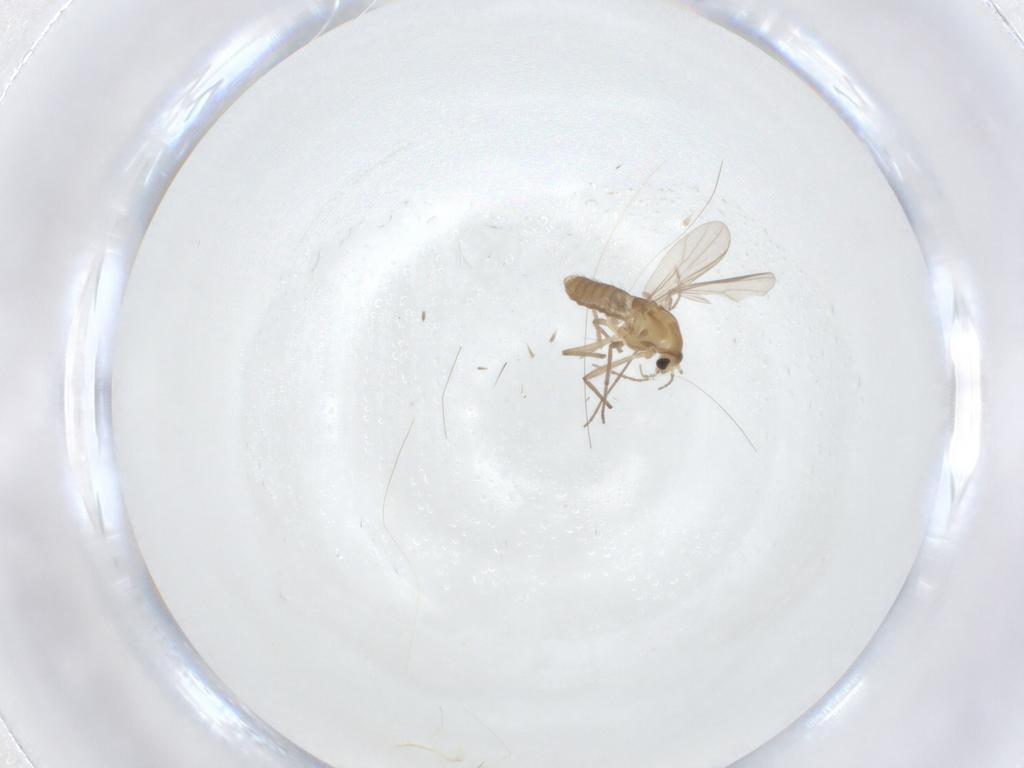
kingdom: Animalia
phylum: Arthropoda
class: Insecta
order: Diptera
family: Chironomidae
